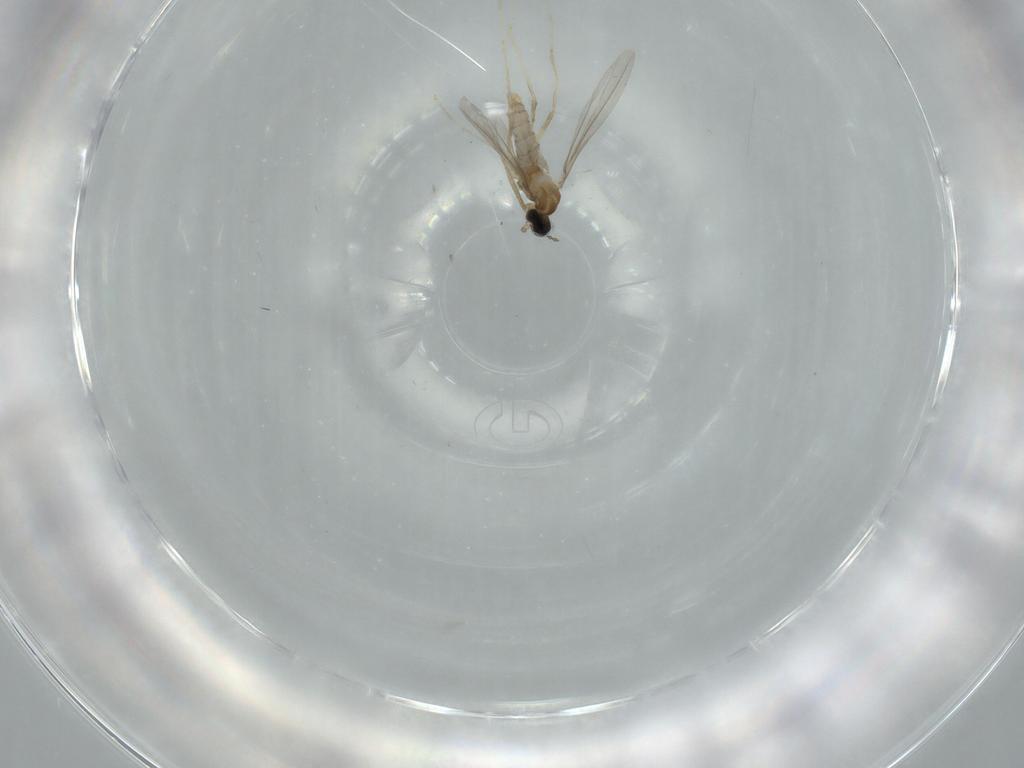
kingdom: Animalia
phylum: Arthropoda
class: Insecta
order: Diptera
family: Cecidomyiidae
